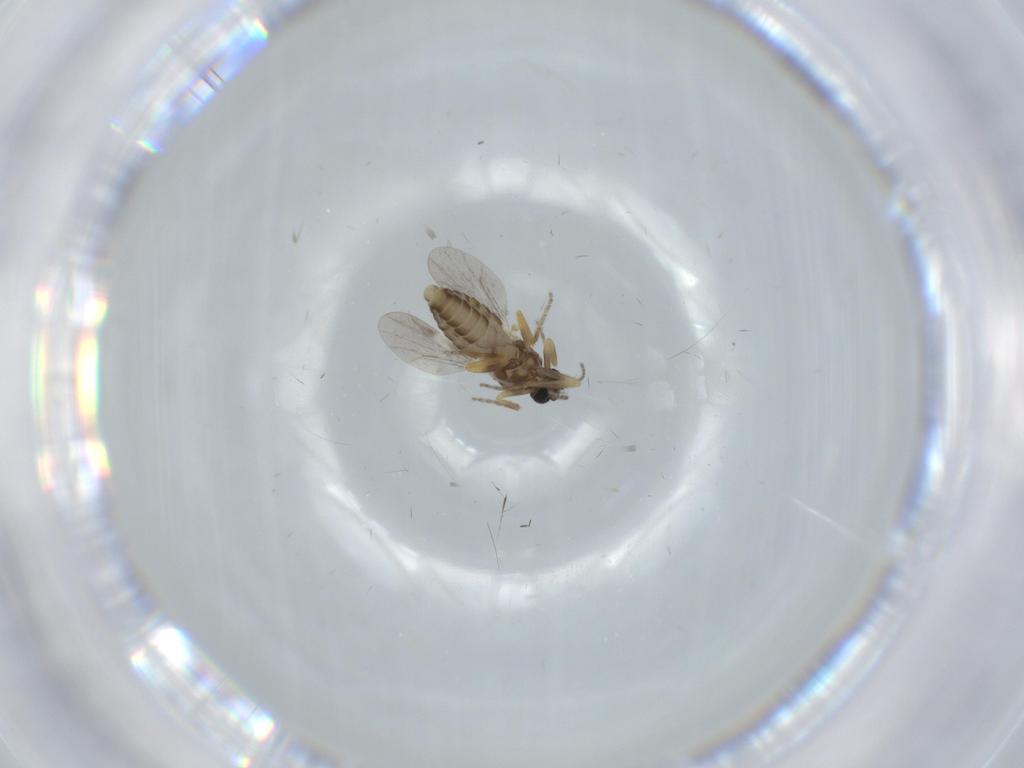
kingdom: Animalia
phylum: Arthropoda
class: Insecta
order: Diptera
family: Ceratopogonidae
